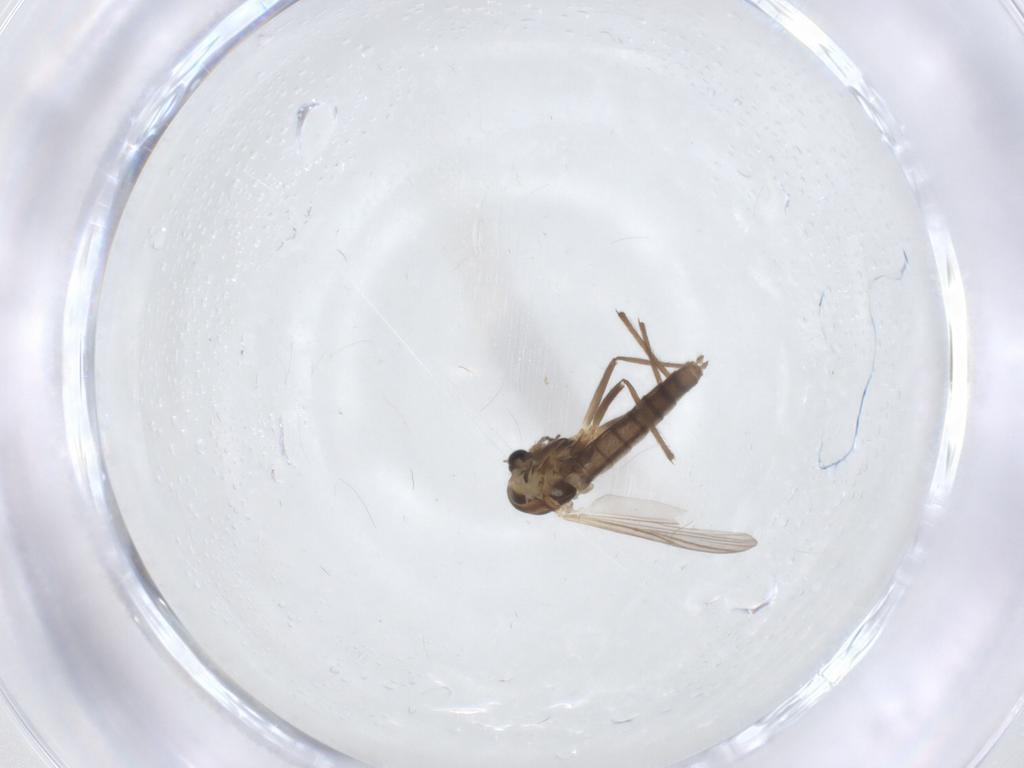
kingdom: Animalia
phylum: Arthropoda
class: Insecta
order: Diptera
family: Chironomidae
